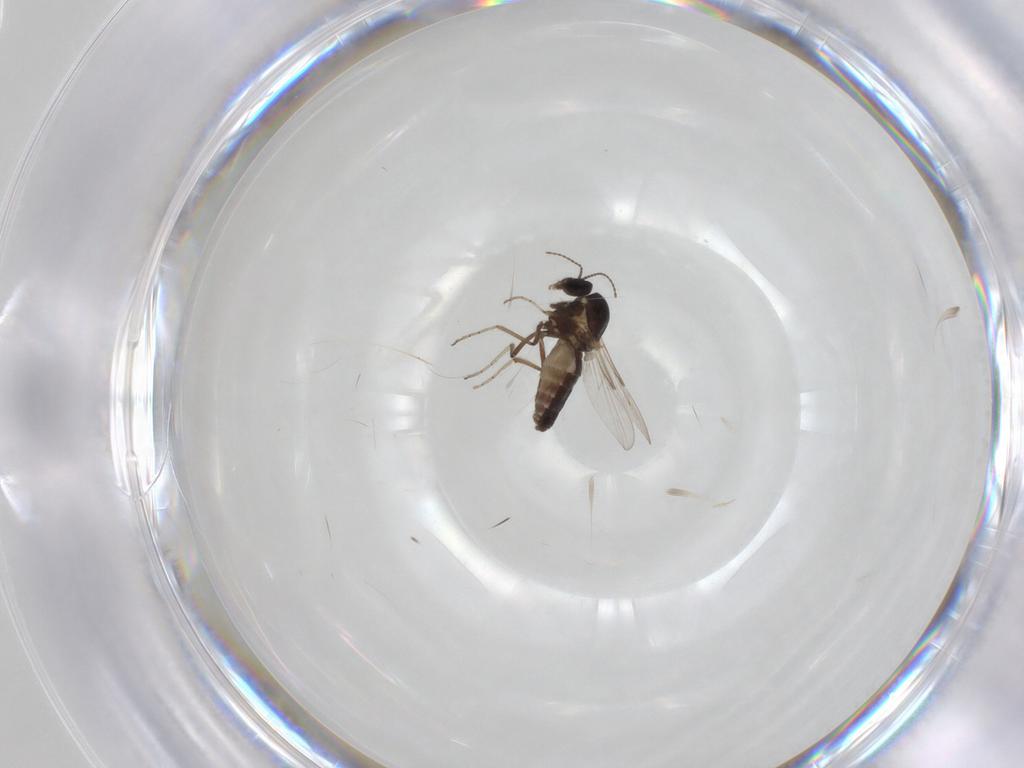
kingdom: Animalia
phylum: Arthropoda
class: Insecta
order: Diptera
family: Ceratopogonidae
